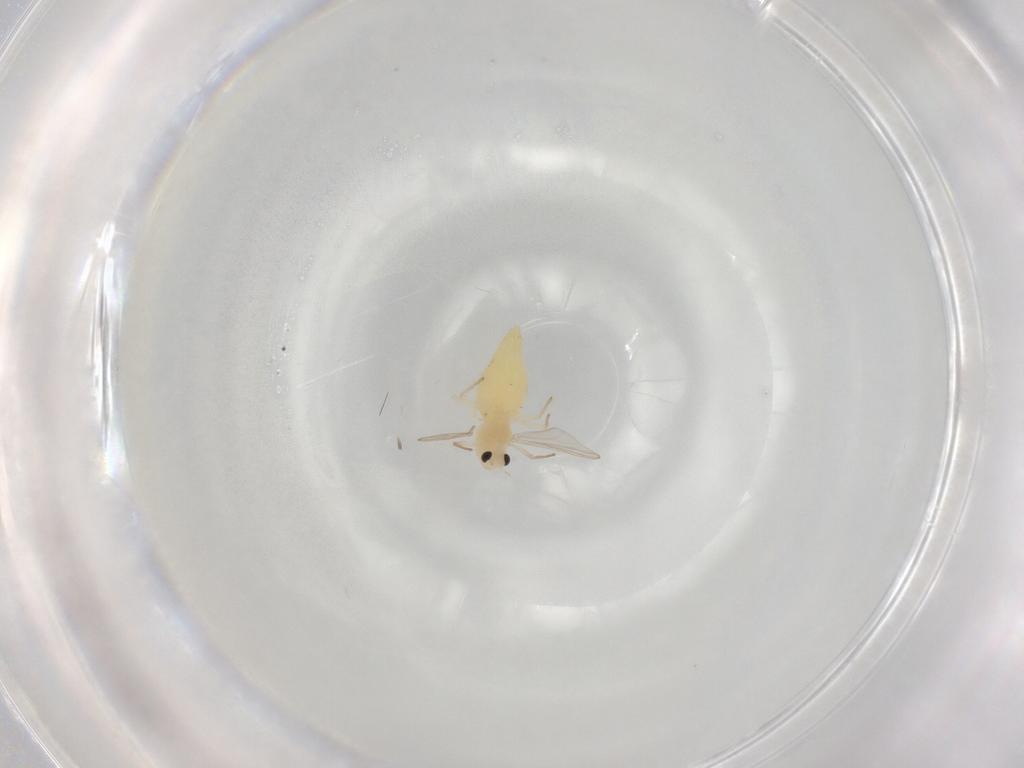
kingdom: Animalia
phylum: Arthropoda
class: Insecta
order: Diptera
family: Chironomidae
